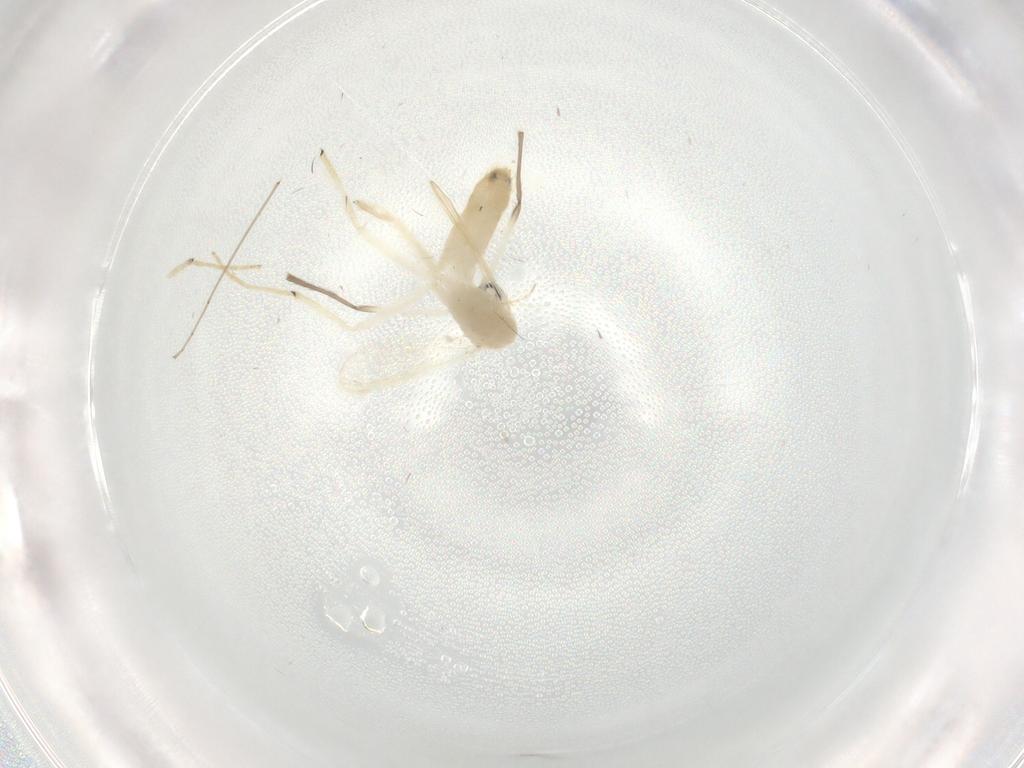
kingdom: Animalia
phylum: Arthropoda
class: Insecta
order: Diptera
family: Chironomidae
